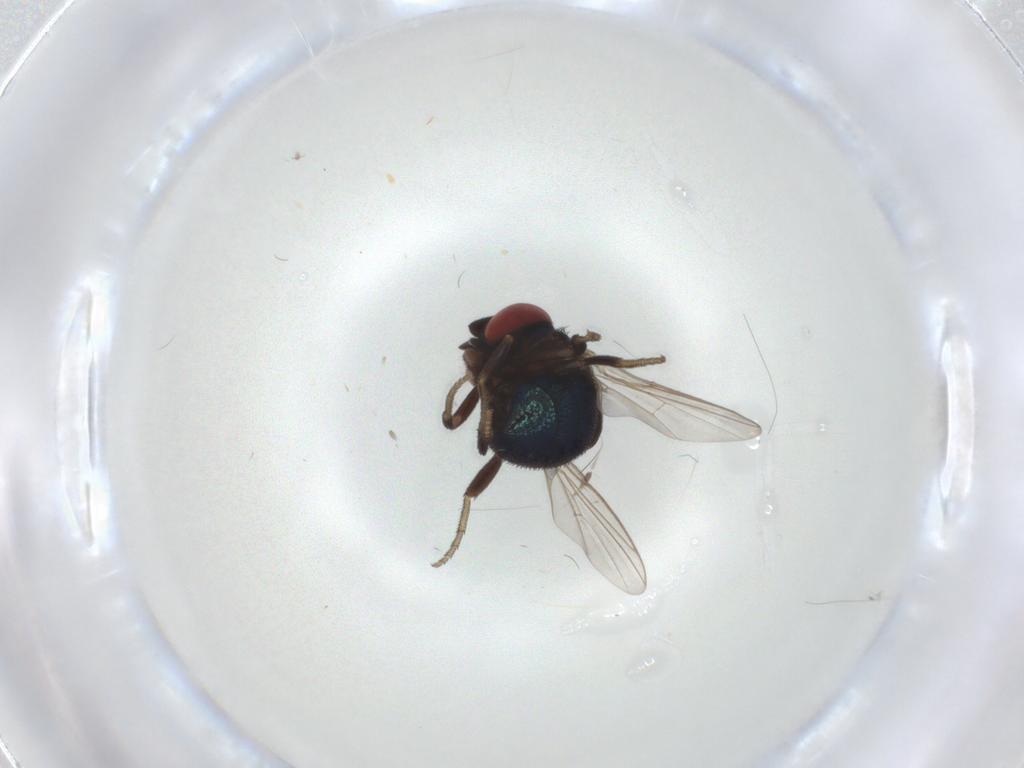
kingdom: Animalia
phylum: Arthropoda
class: Insecta
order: Diptera
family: Cryptochetidae
